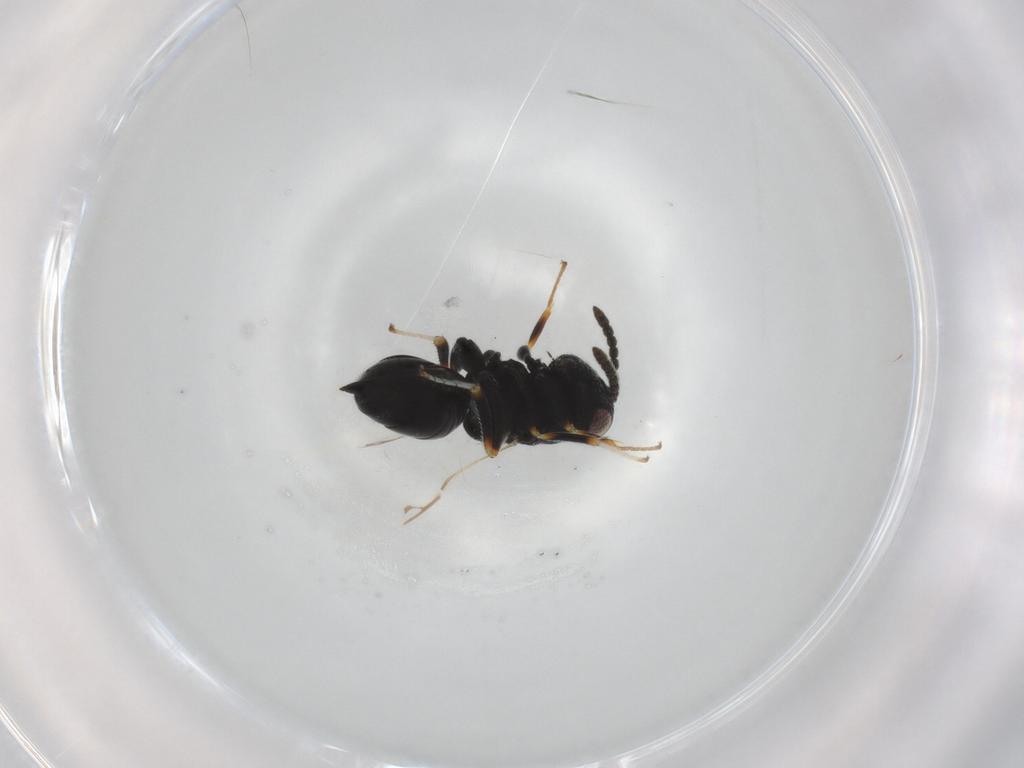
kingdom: Animalia
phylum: Arthropoda
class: Insecta
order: Hymenoptera
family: Eurytomidae
